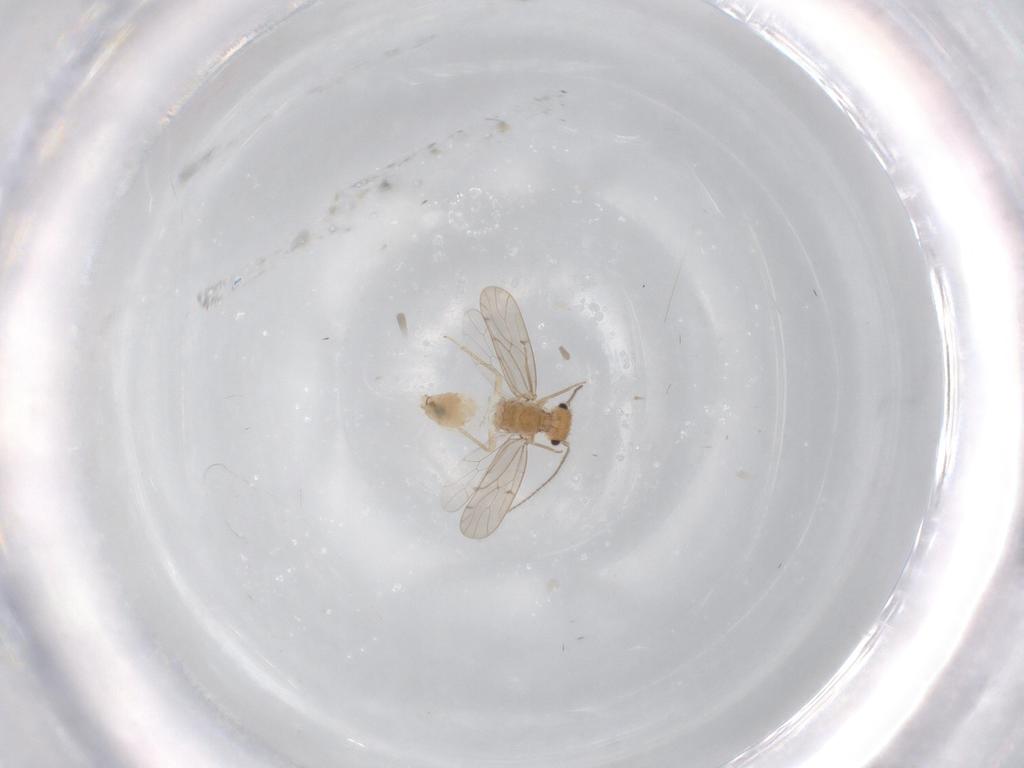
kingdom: Animalia
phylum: Arthropoda
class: Insecta
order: Psocodea
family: Ectopsocidae
